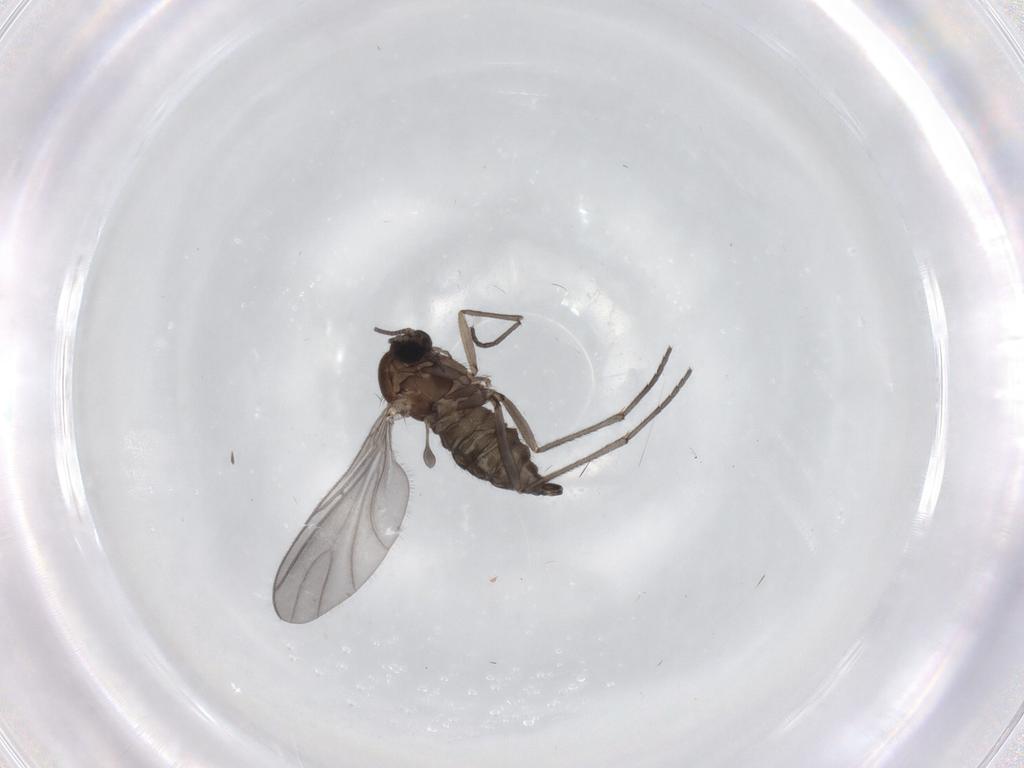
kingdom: Animalia
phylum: Arthropoda
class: Insecta
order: Diptera
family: Sciaridae
